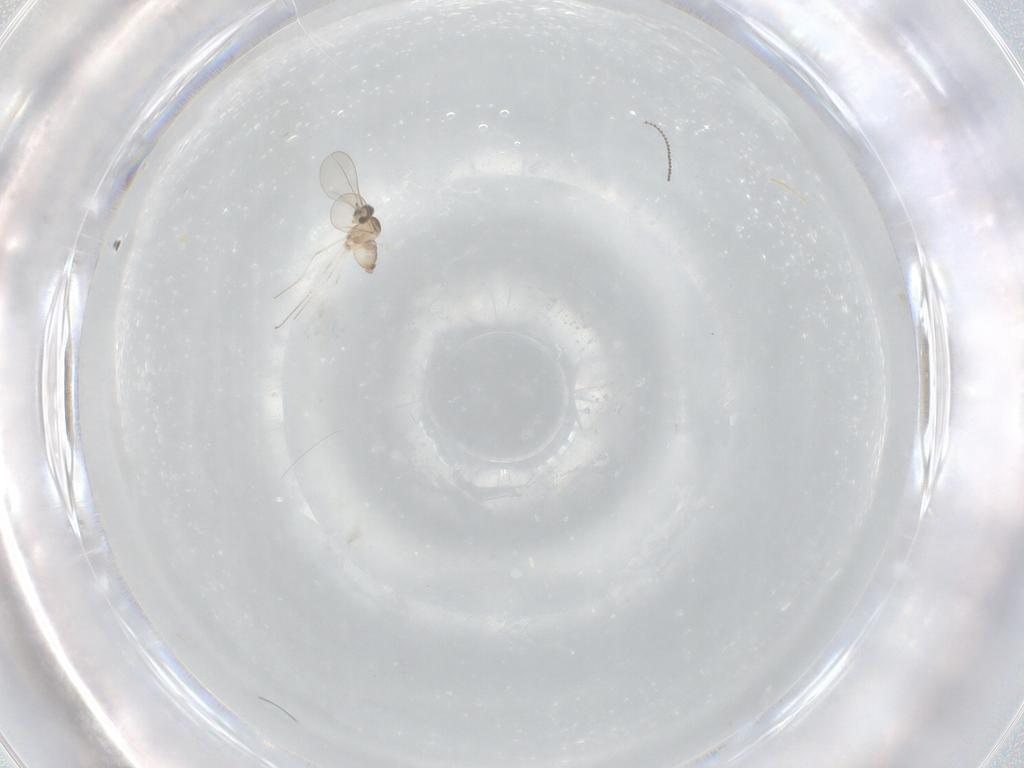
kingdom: Animalia
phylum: Arthropoda
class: Insecta
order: Diptera
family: Cecidomyiidae
